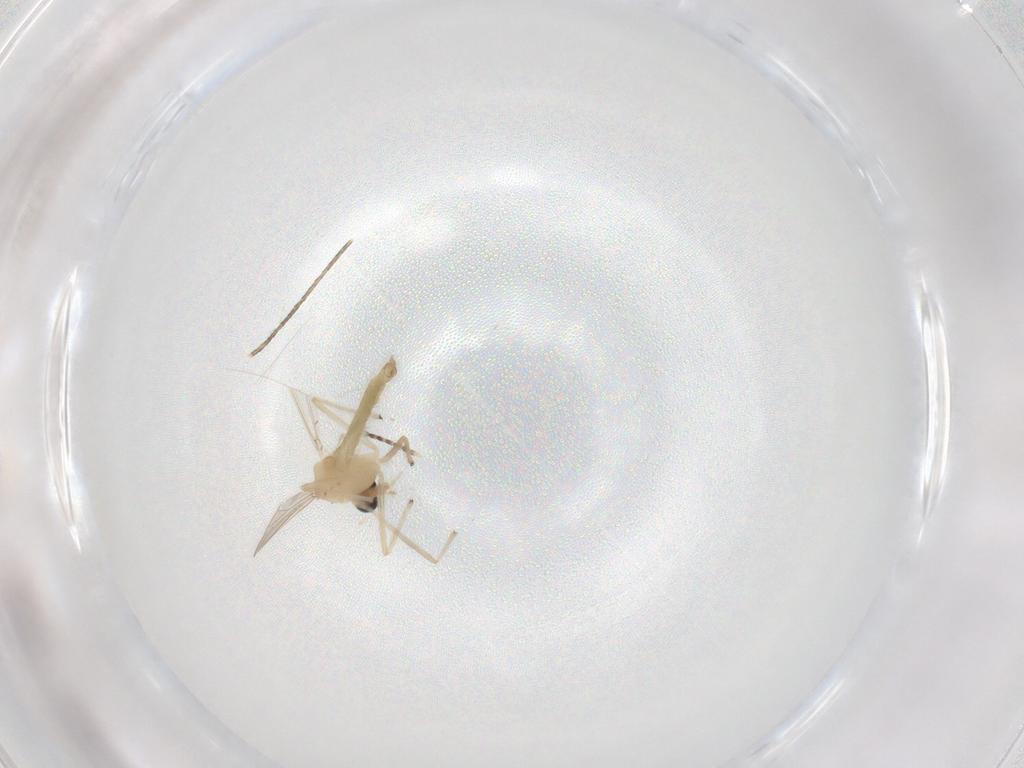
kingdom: Animalia
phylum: Arthropoda
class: Insecta
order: Diptera
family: Chironomidae
